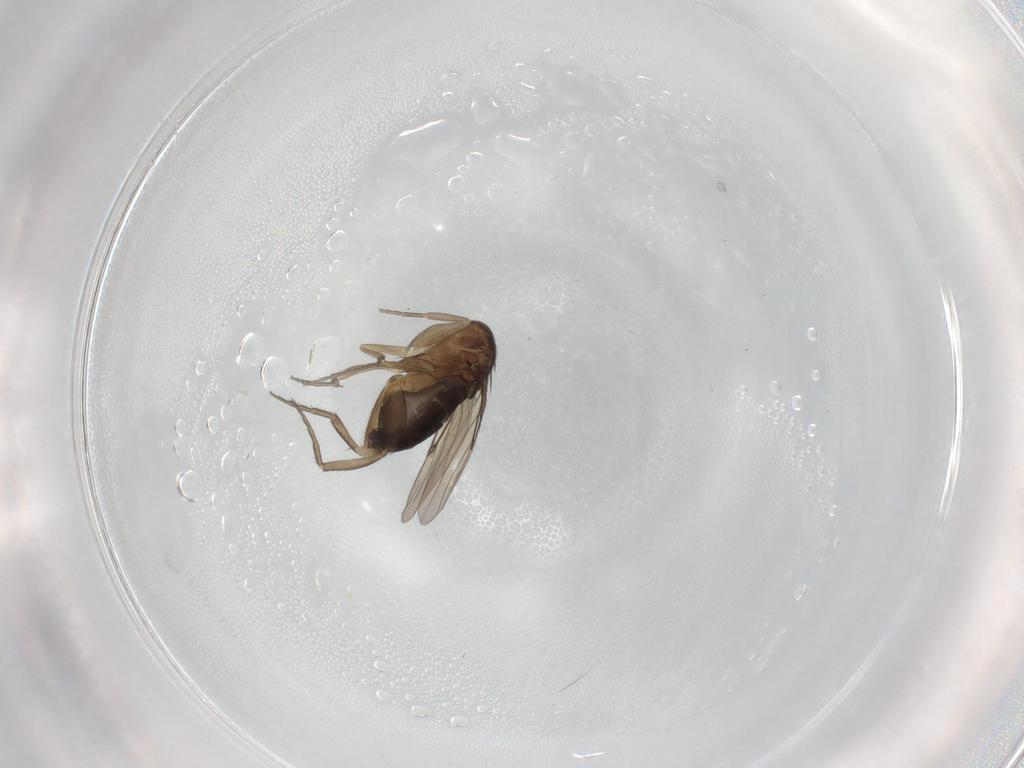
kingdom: Animalia
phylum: Arthropoda
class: Insecta
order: Diptera
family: Phoridae
